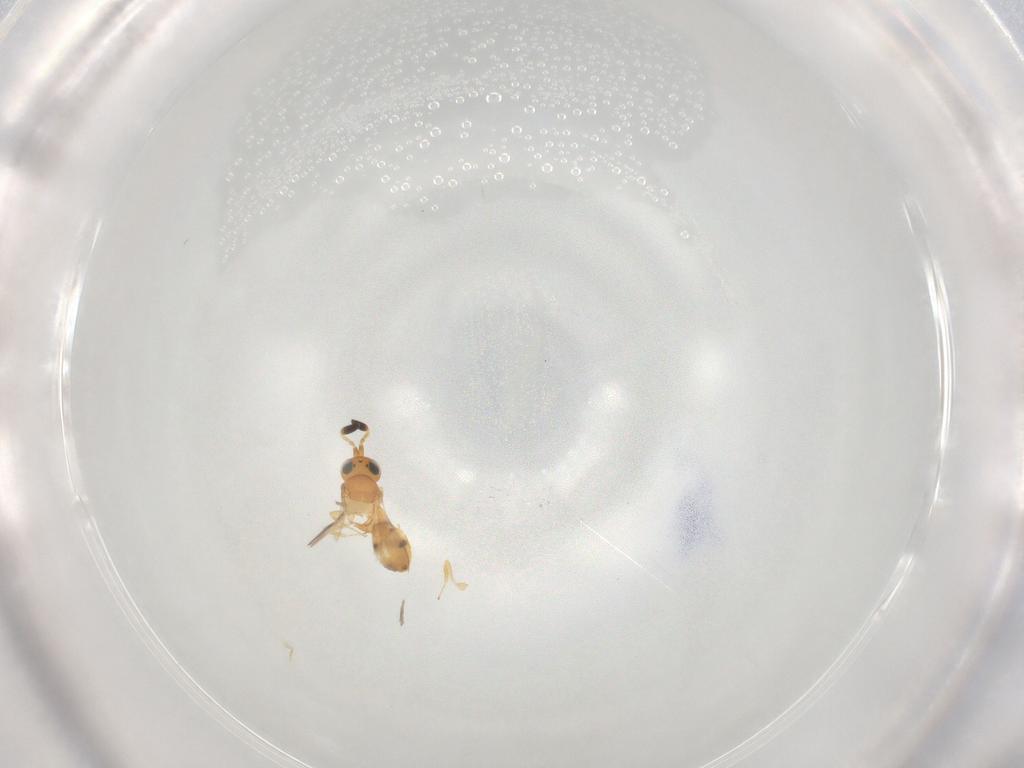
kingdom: Animalia
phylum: Arthropoda
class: Insecta
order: Hymenoptera
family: Scelionidae
